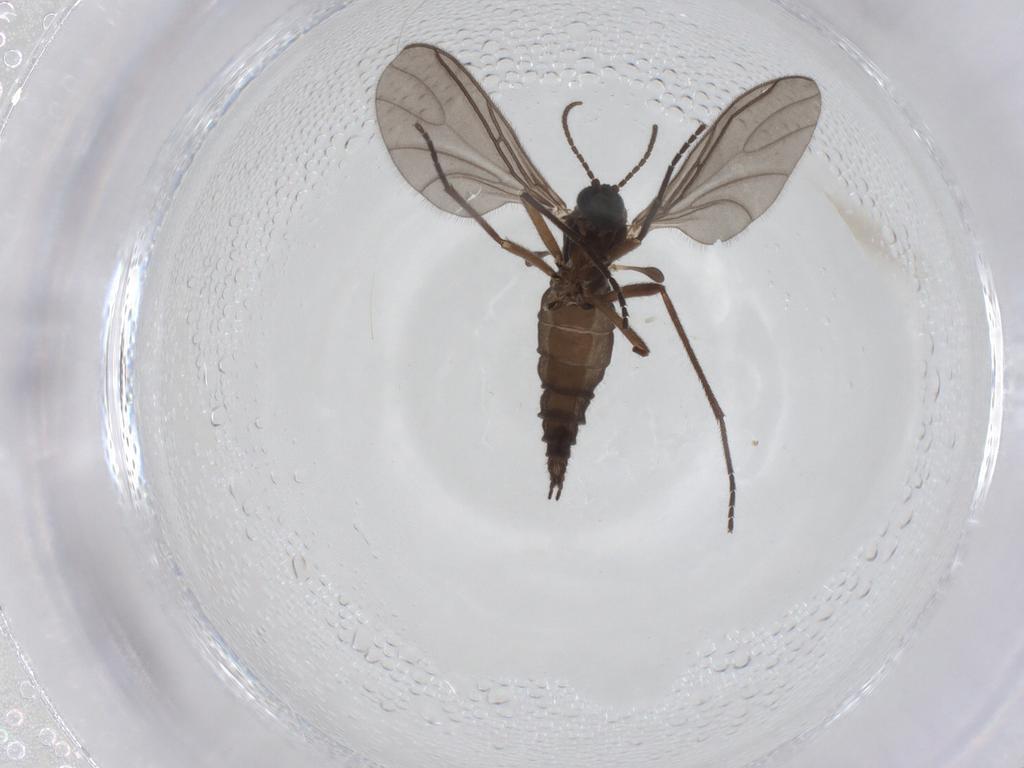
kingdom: Animalia
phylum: Arthropoda
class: Insecta
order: Diptera
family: Sciaridae
